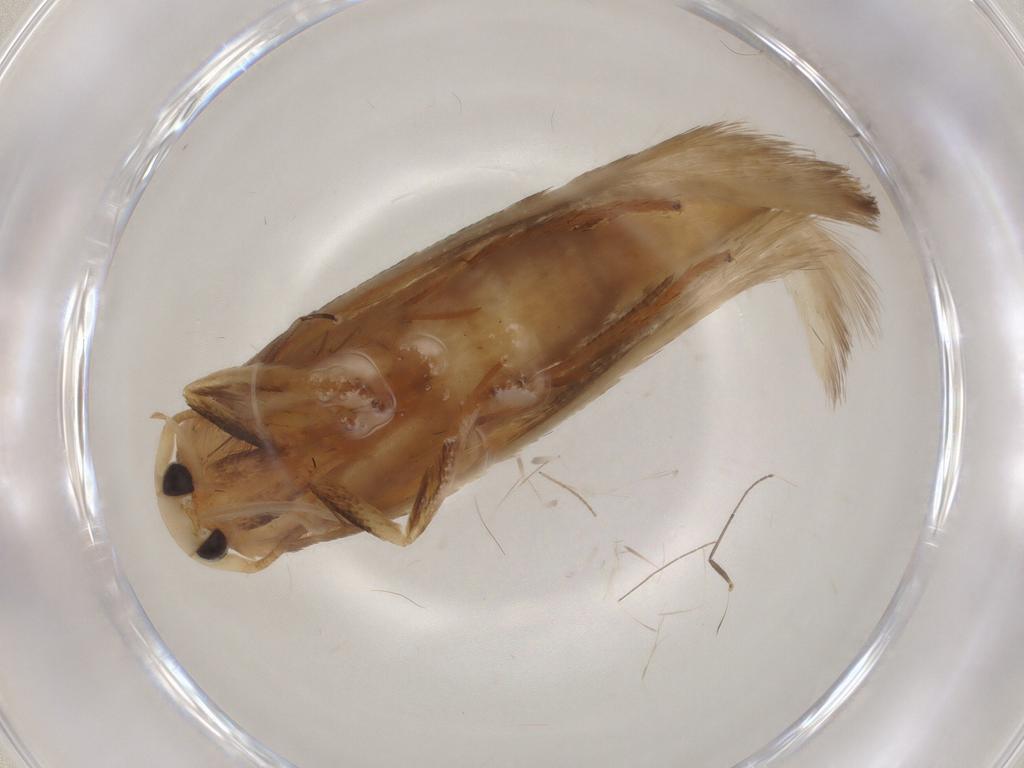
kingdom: Animalia
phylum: Arthropoda
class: Insecta
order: Lepidoptera
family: Geometridae
